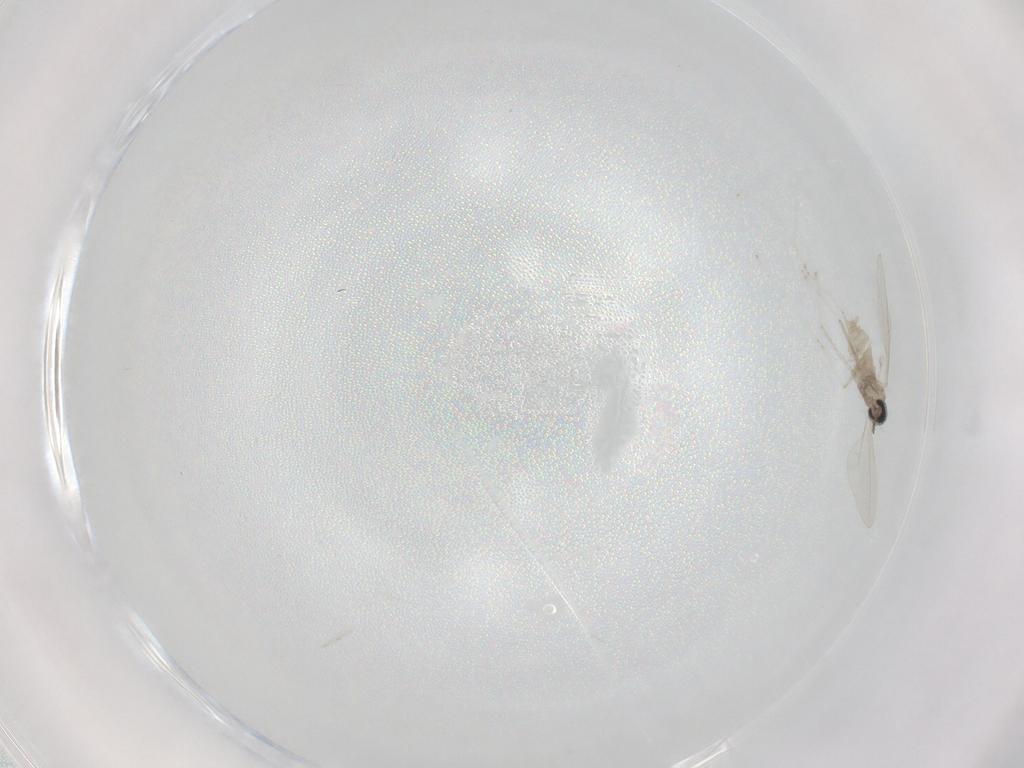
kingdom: Animalia
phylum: Arthropoda
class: Insecta
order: Diptera
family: Cecidomyiidae
